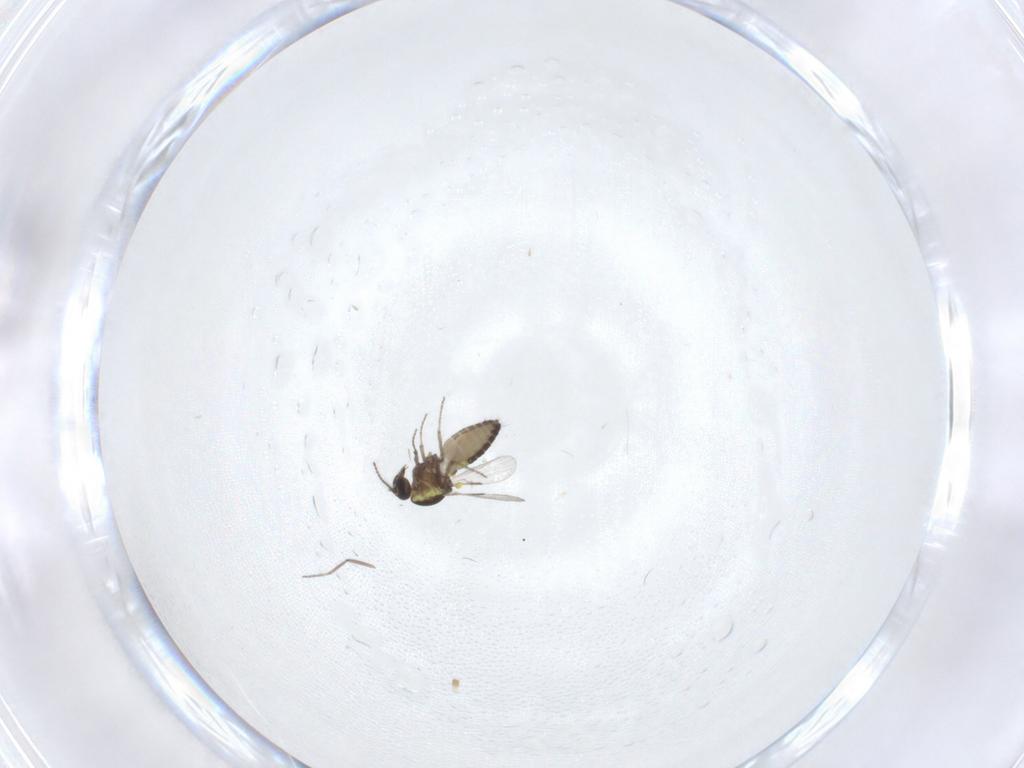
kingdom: Animalia
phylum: Arthropoda
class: Insecta
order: Diptera
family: Ceratopogonidae
